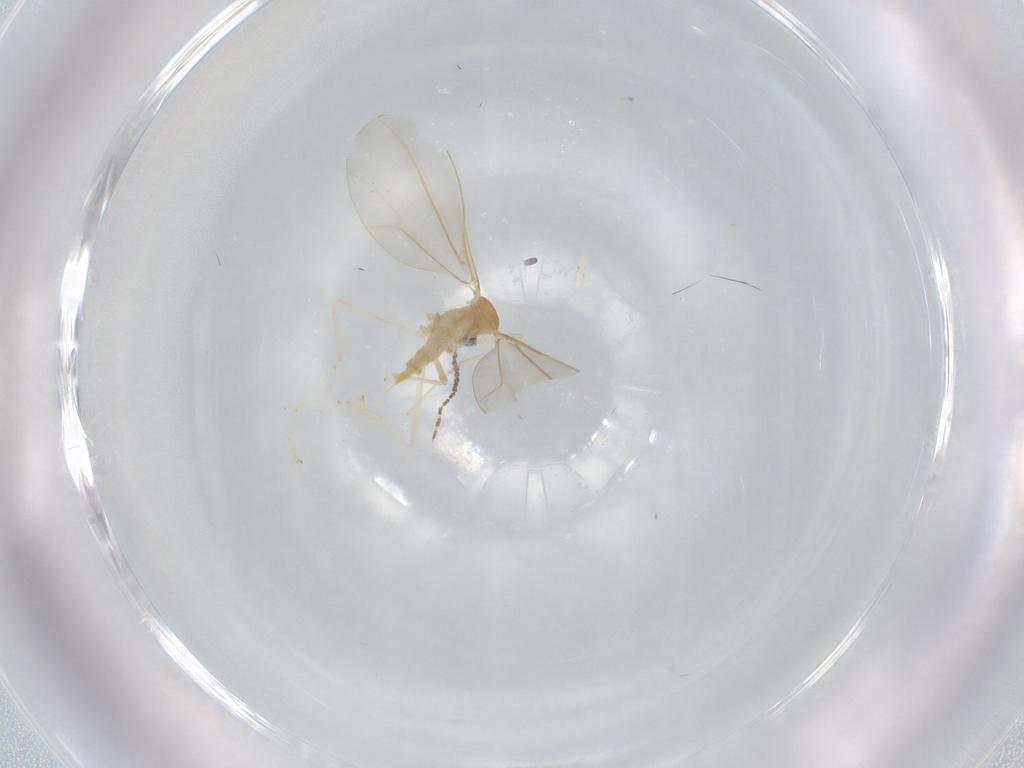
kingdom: Animalia
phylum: Arthropoda
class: Insecta
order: Diptera
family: Cecidomyiidae
